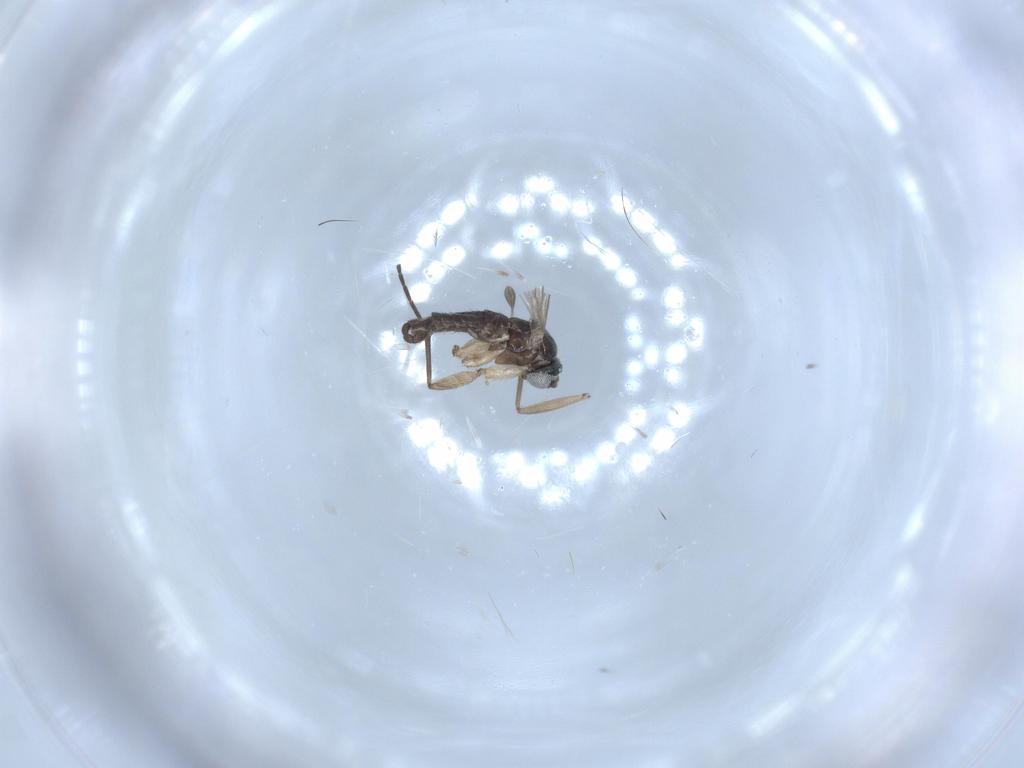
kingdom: Animalia
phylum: Arthropoda
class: Insecta
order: Diptera
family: Sciaridae
